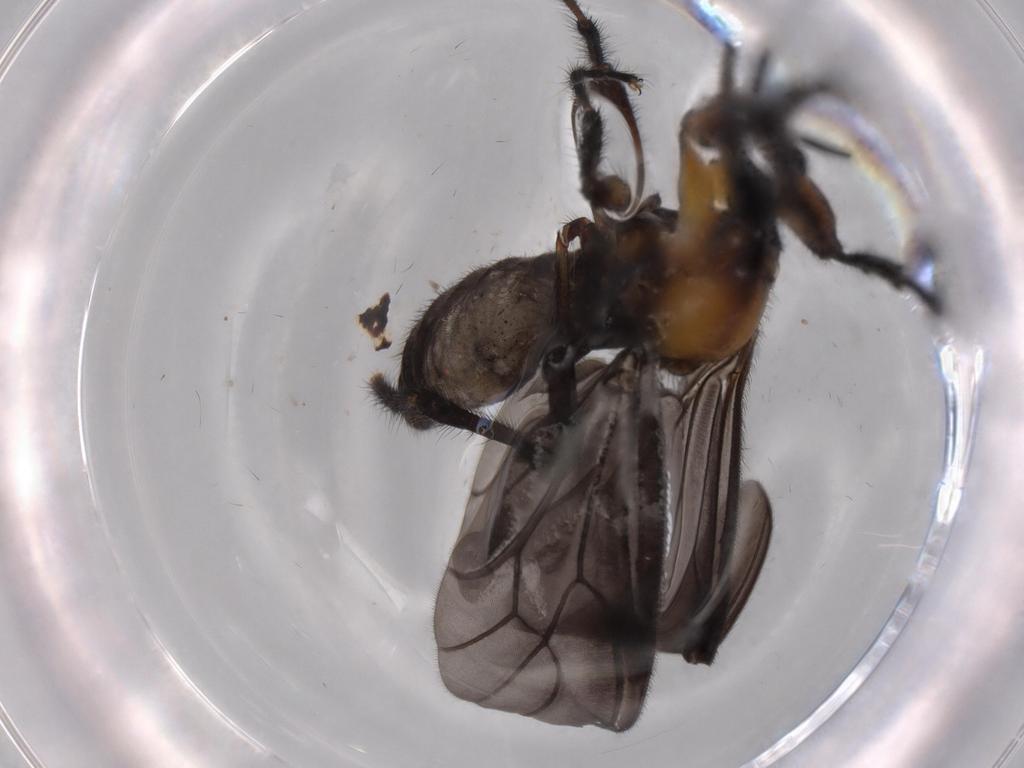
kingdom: Animalia
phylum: Arthropoda
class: Insecta
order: Diptera
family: Bibionidae
